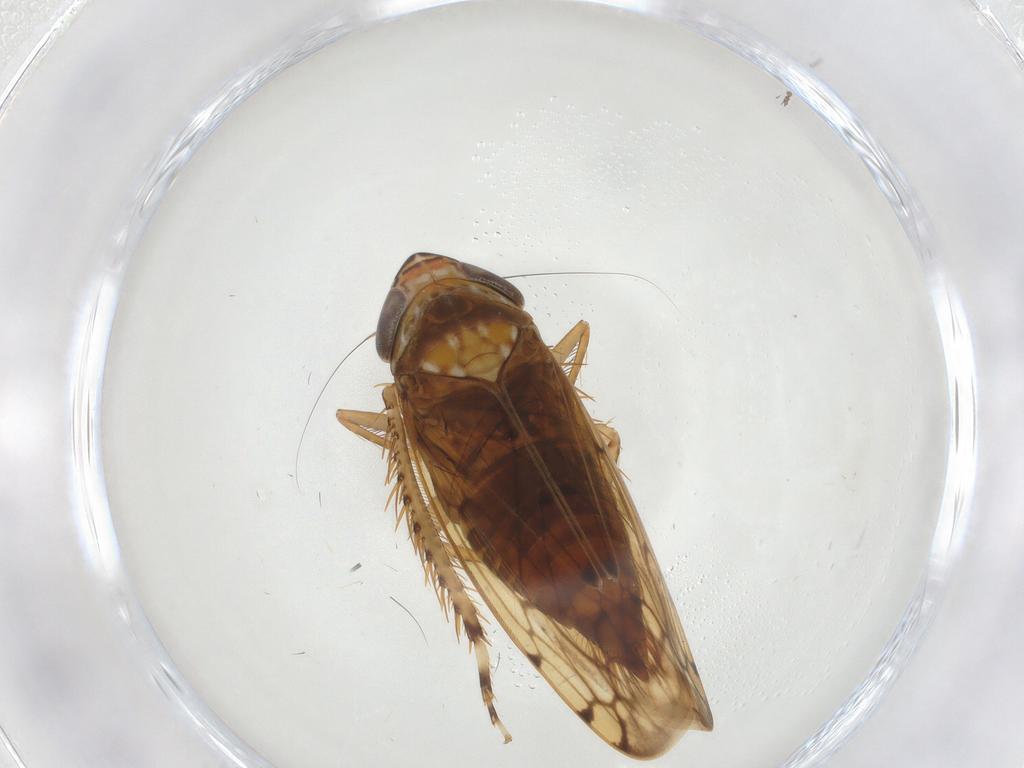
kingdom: Animalia
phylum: Arthropoda
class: Insecta
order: Hemiptera
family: Cicadellidae
